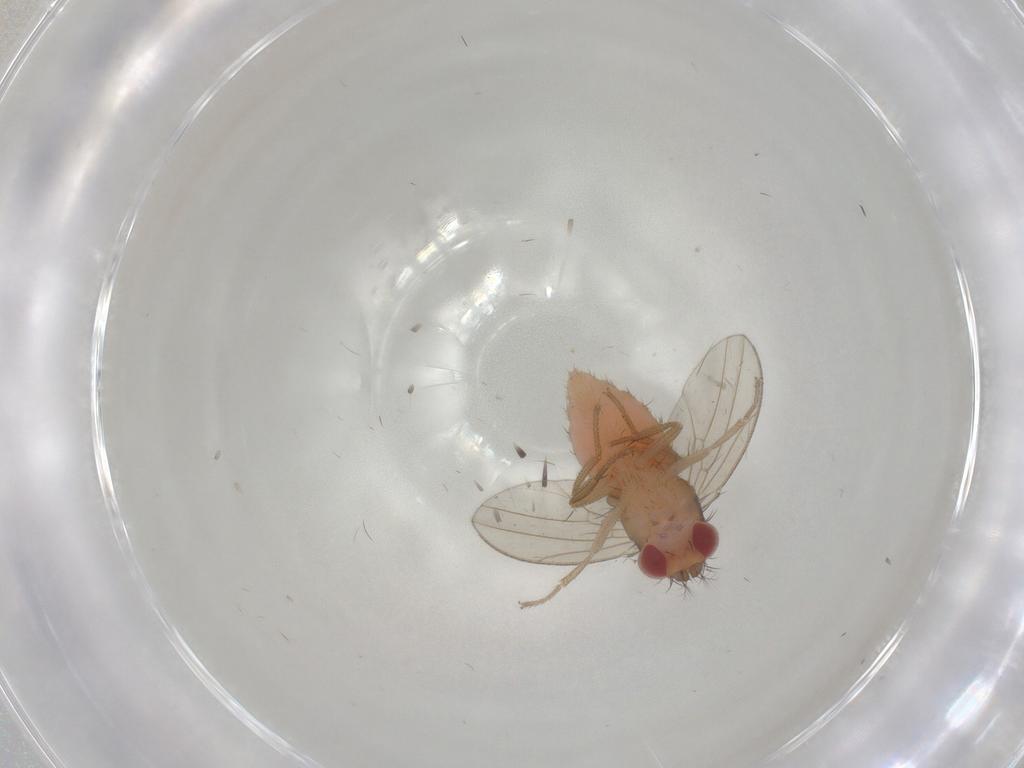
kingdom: Animalia
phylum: Arthropoda
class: Insecta
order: Diptera
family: Drosophilidae
